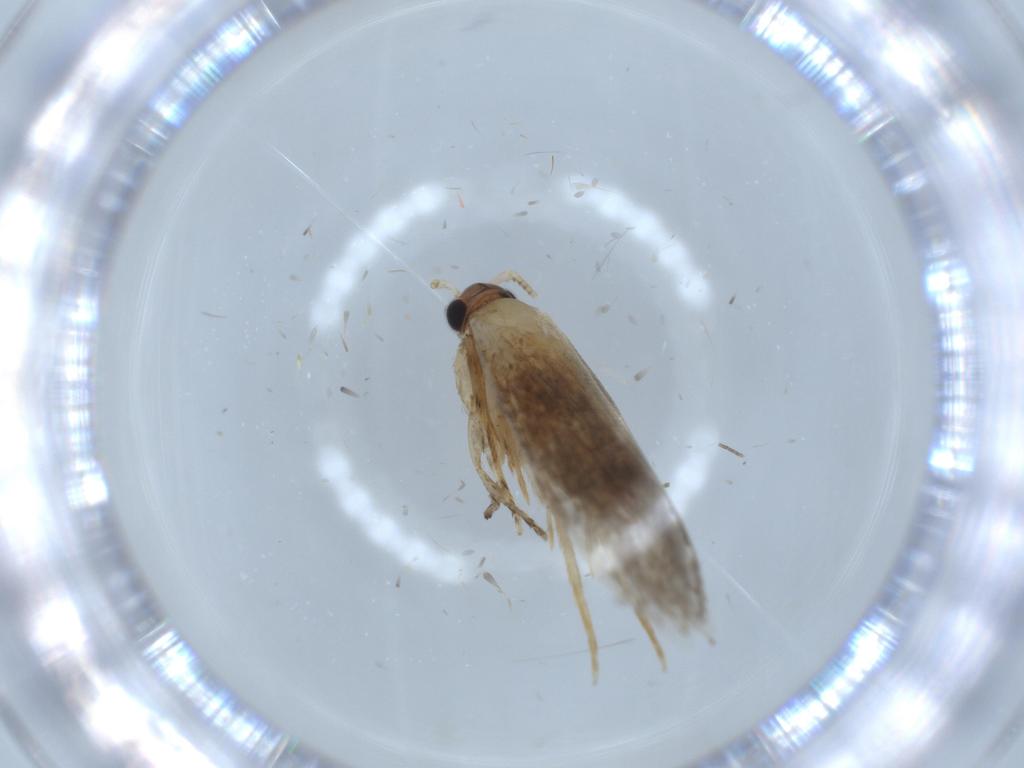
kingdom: Animalia
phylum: Arthropoda
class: Insecta
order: Lepidoptera
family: Tineidae
